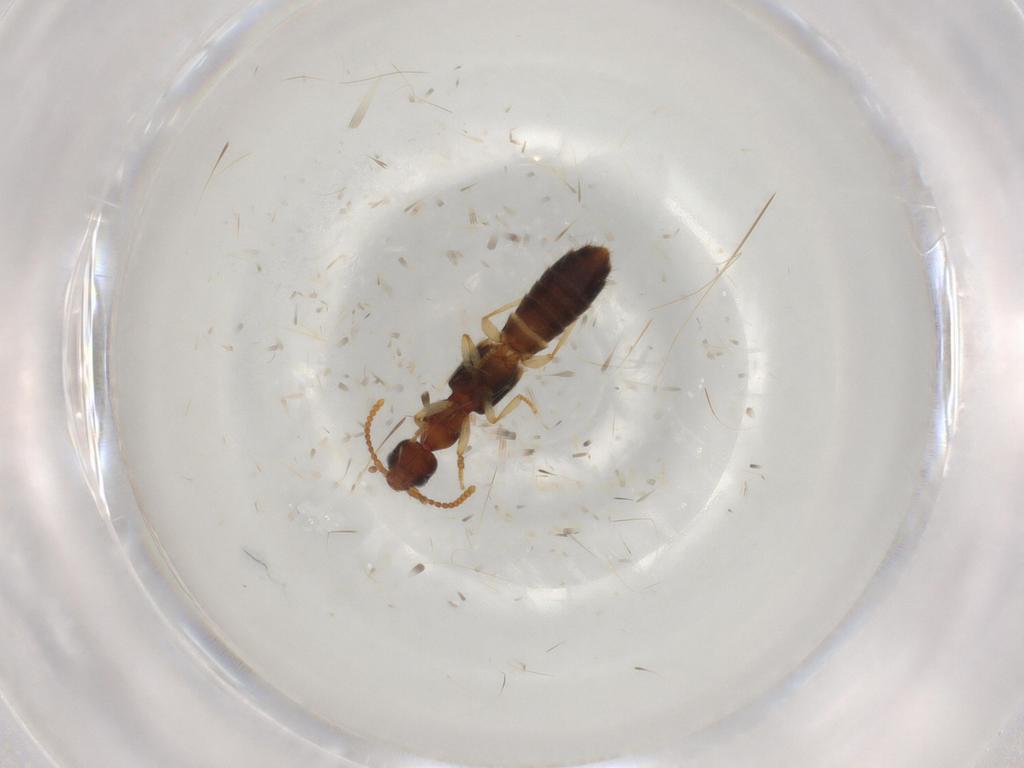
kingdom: Animalia
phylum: Arthropoda
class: Insecta
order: Coleoptera
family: Staphylinidae
